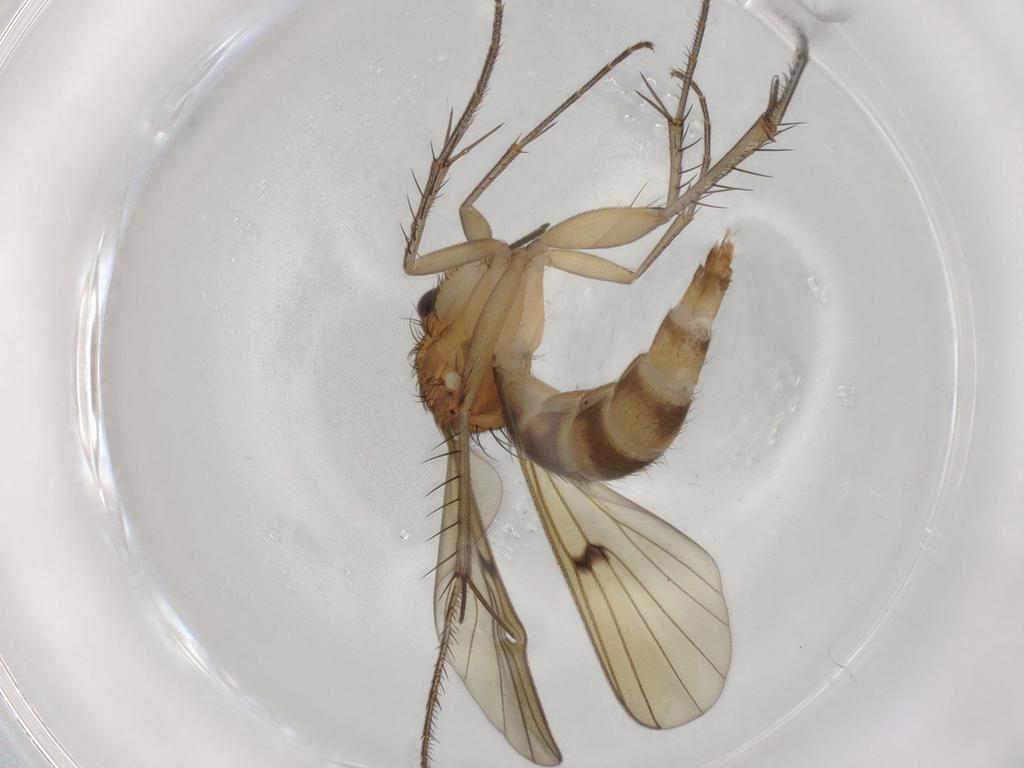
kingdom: Animalia
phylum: Arthropoda
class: Insecta
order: Diptera
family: Mycetophilidae
